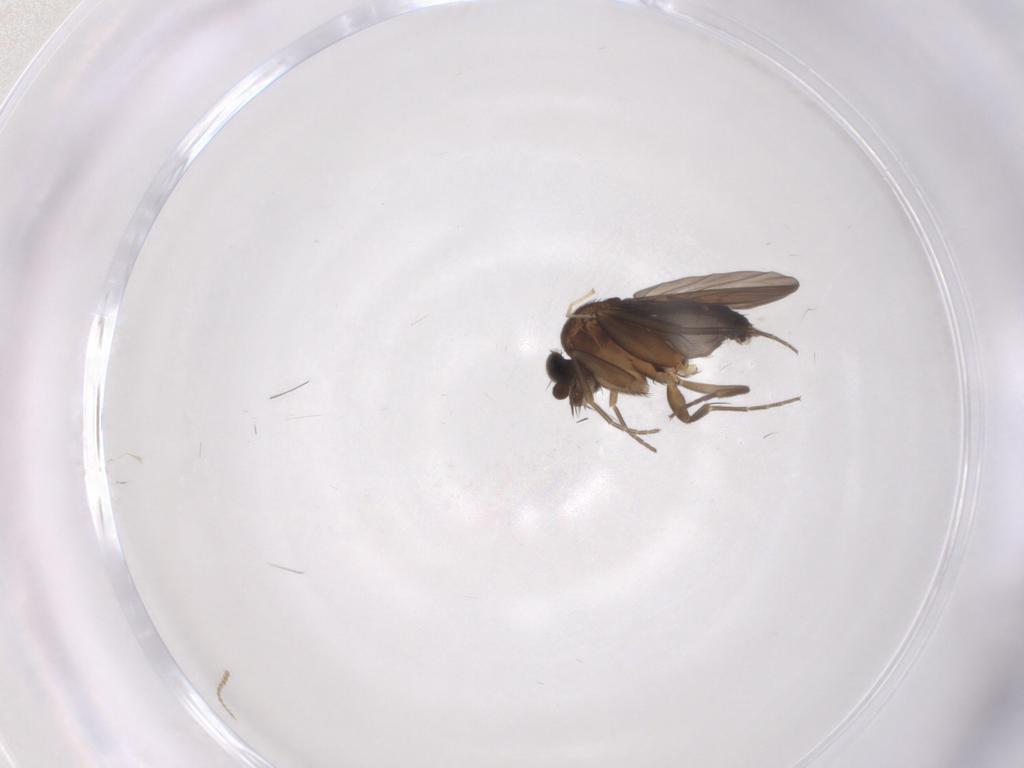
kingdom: Animalia
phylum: Arthropoda
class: Insecta
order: Diptera
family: Phoridae
